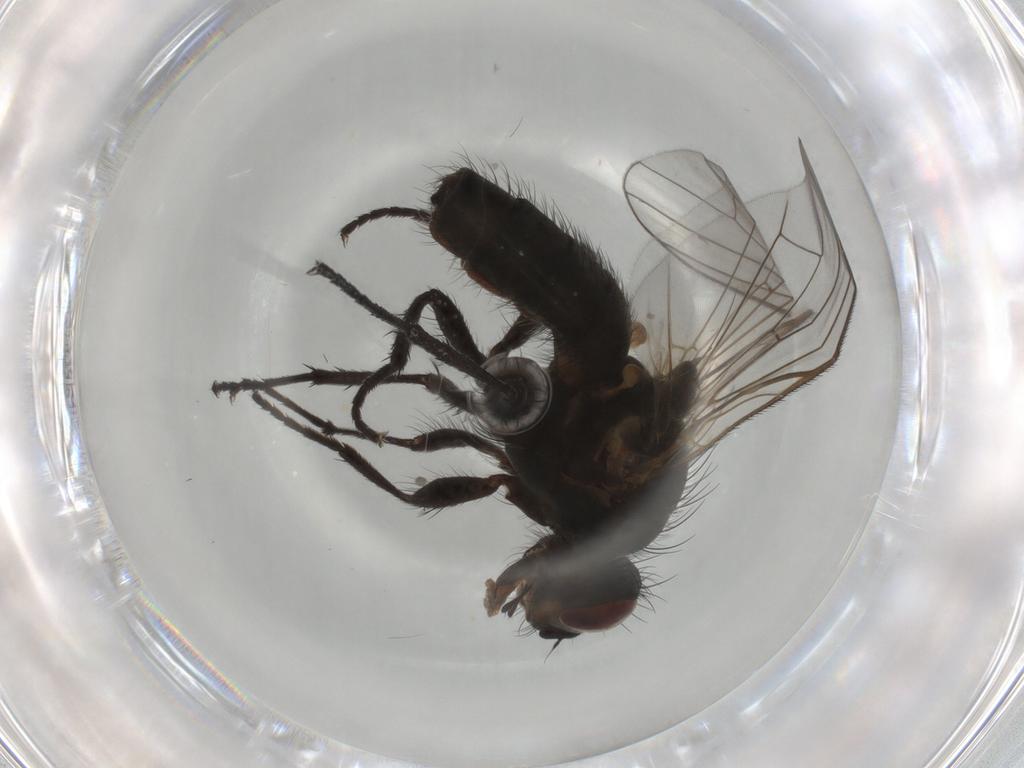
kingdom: Animalia
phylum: Arthropoda
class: Insecta
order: Diptera
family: Anthomyiidae
